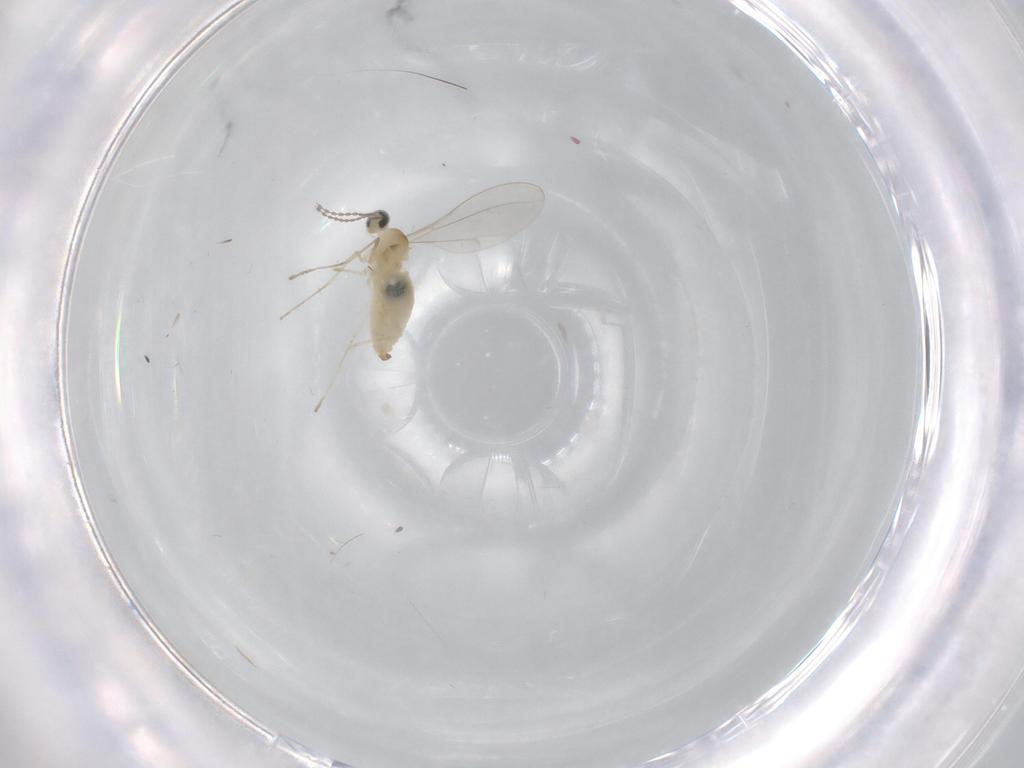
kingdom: Animalia
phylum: Arthropoda
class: Insecta
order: Diptera
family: Cecidomyiidae
